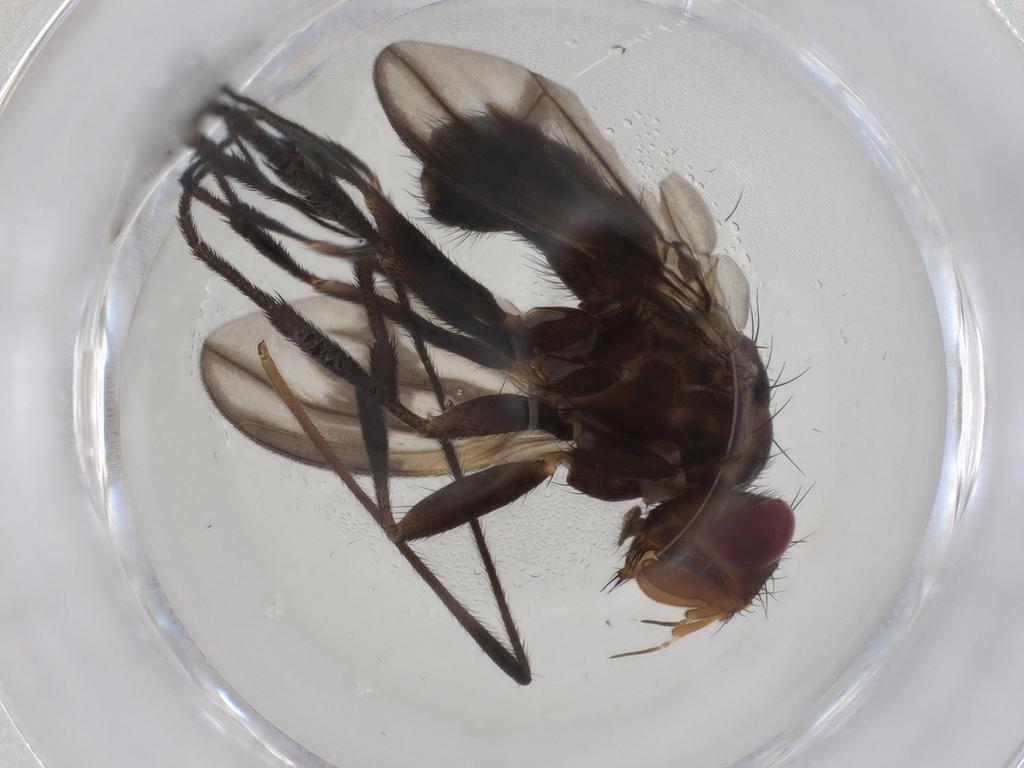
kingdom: Animalia
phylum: Arthropoda
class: Insecta
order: Diptera
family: Calliphoridae
